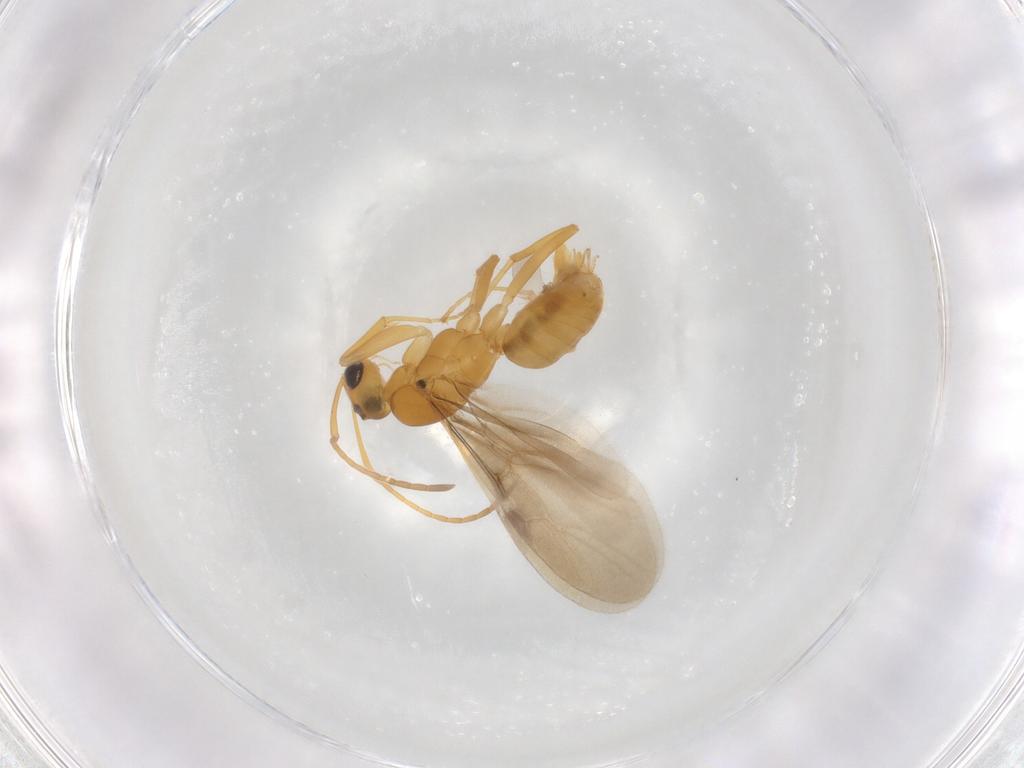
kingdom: Animalia
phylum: Arthropoda
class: Insecta
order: Hymenoptera
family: Formicidae
